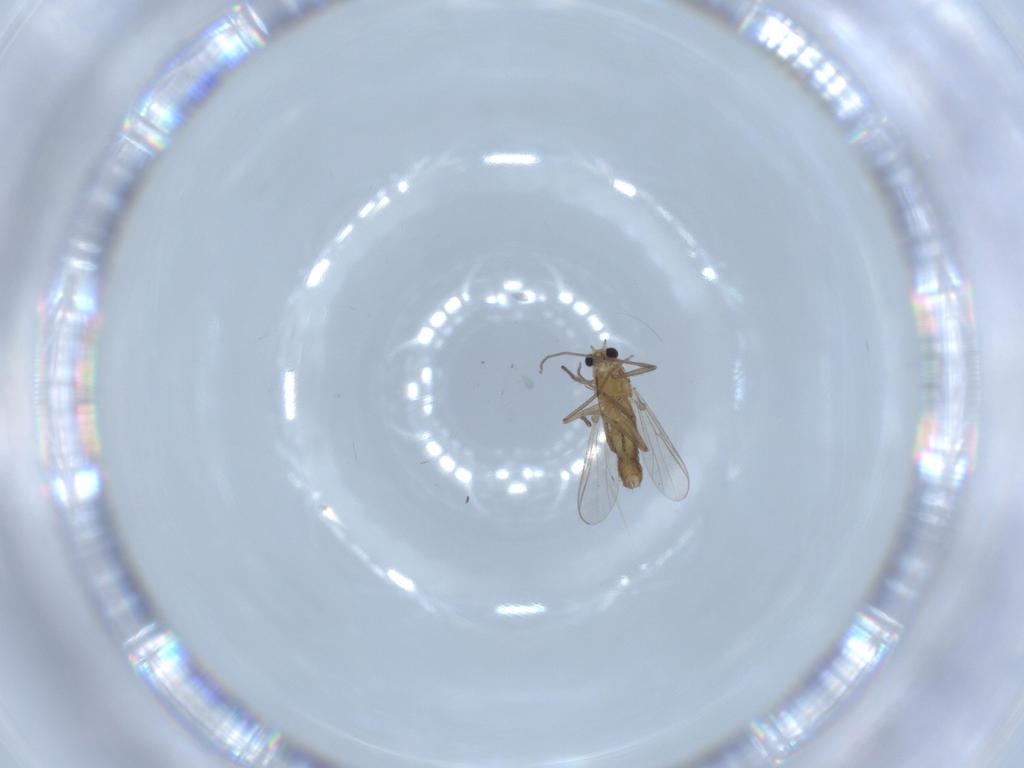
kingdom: Animalia
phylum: Arthropoda
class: Insecta
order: Diptera
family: Chironomidae
